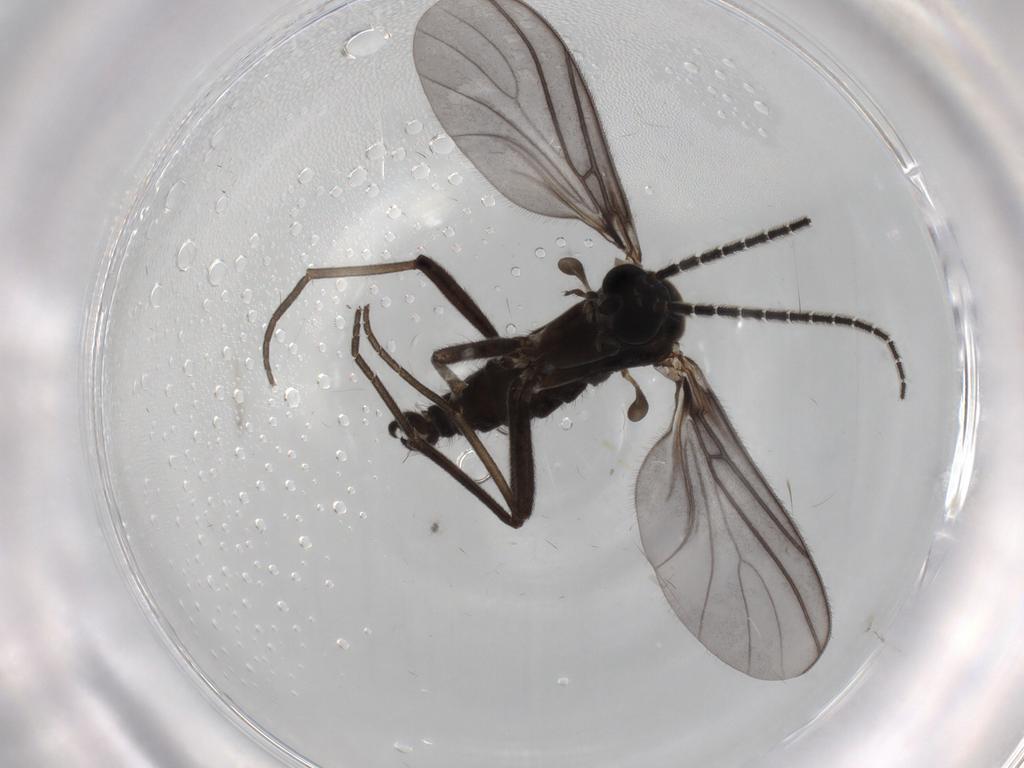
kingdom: Animalia
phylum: Arthropoda
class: Insecta
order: Diptera
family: Sciaridae
